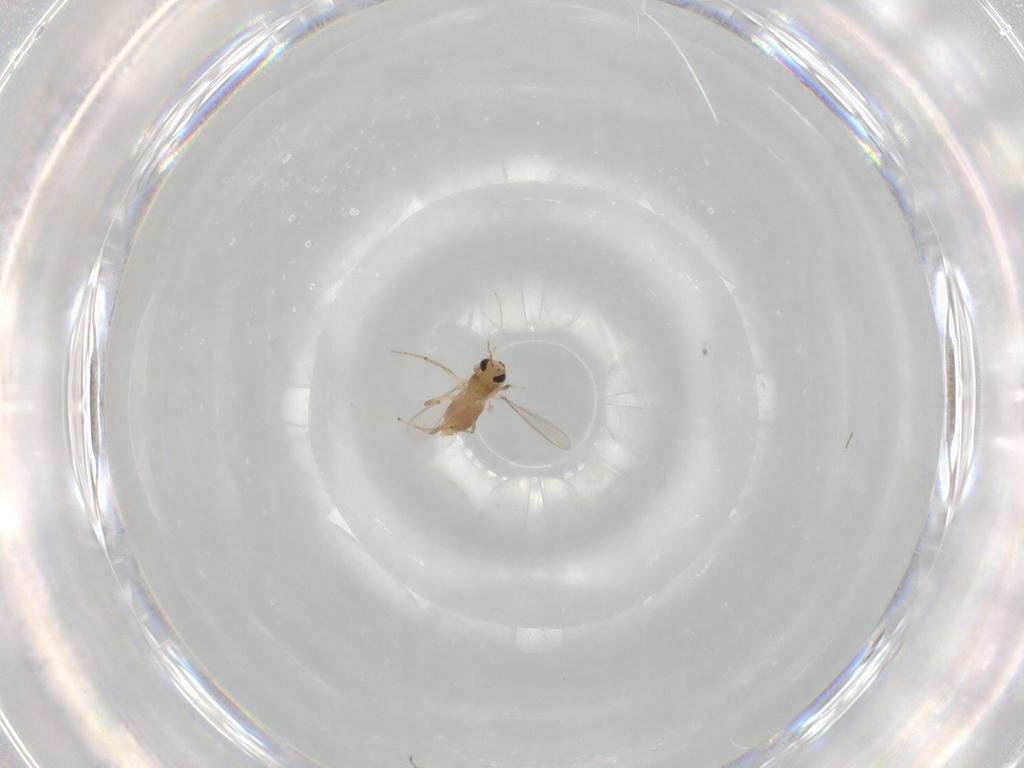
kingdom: Animalia
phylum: Arthropoda
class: Insecta
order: Diptera
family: Chironomidae
